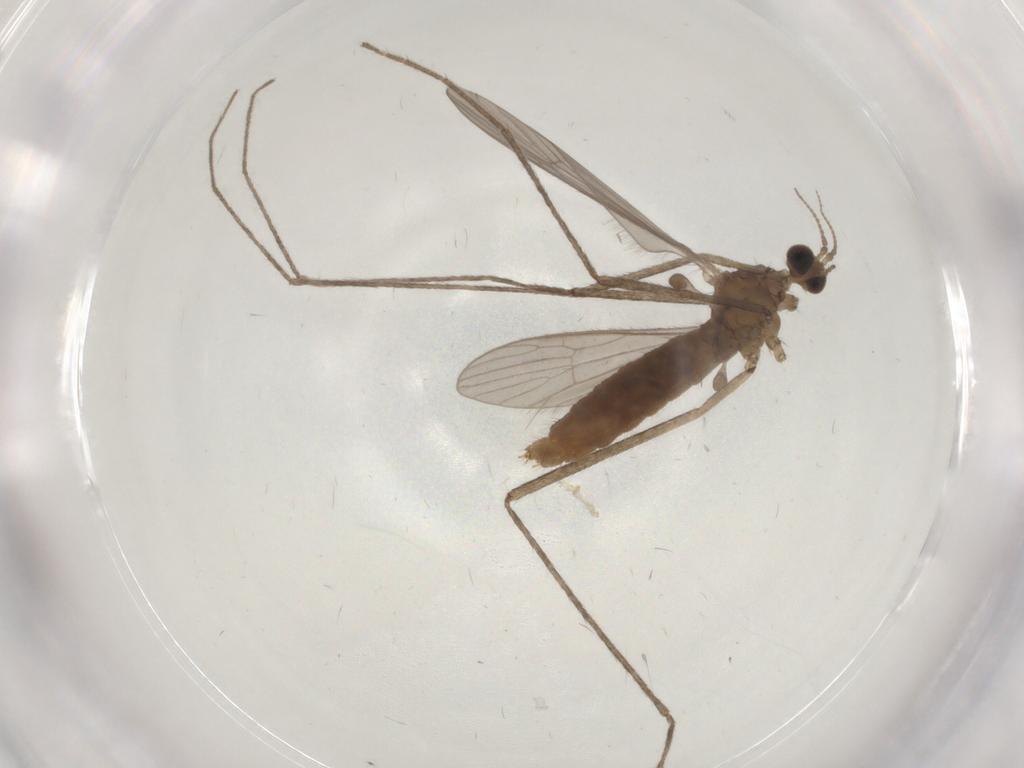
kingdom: Animalia
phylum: Arthropoda
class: Insecta
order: Diptera
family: Limoniidae
